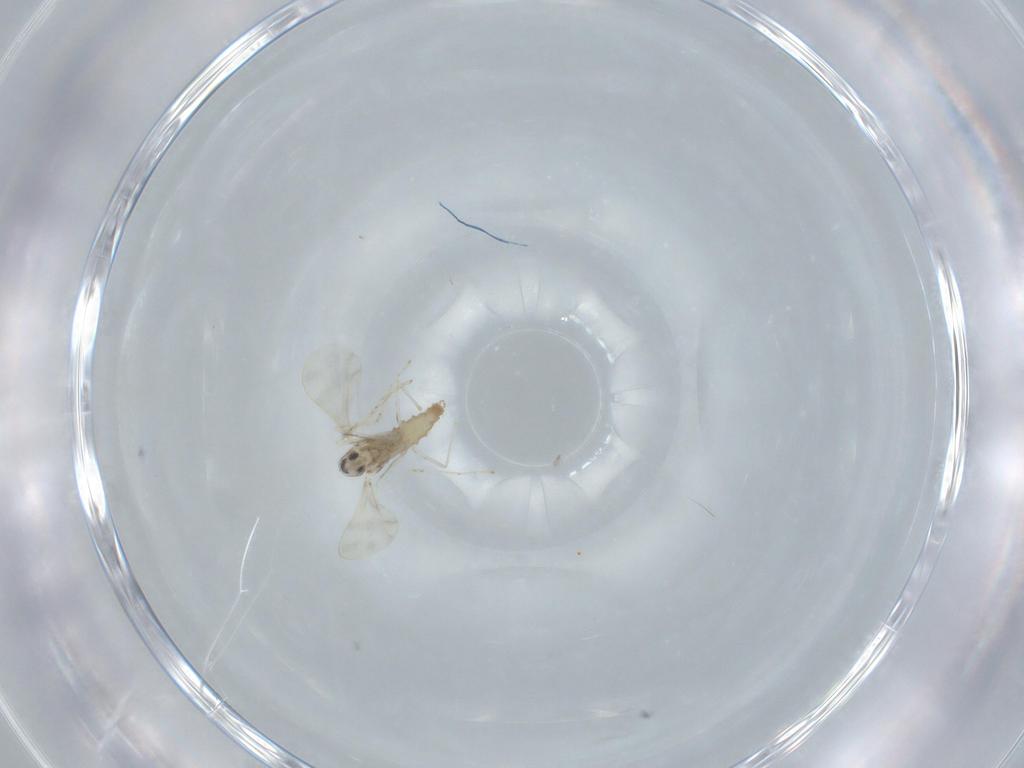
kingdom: Animalia
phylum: Arthropoda
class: Insecta
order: Diptera
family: Cecidomyiidae
